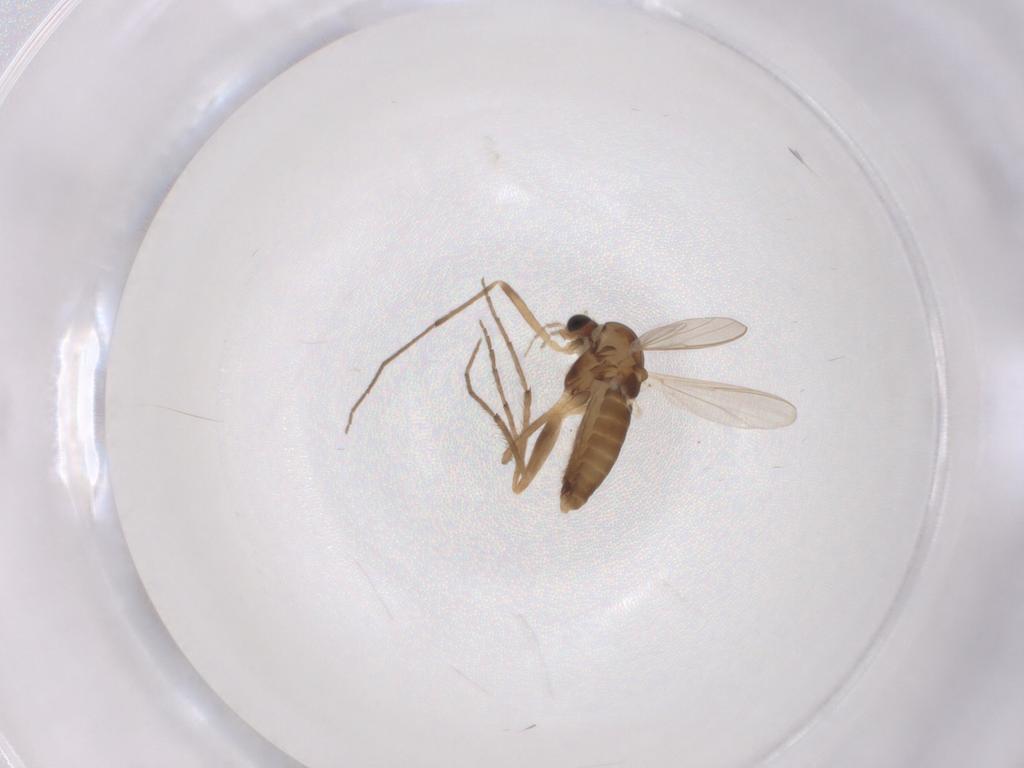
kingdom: Animalia
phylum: Arthropoda
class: Insecta
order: Diptera
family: Chironomidae
